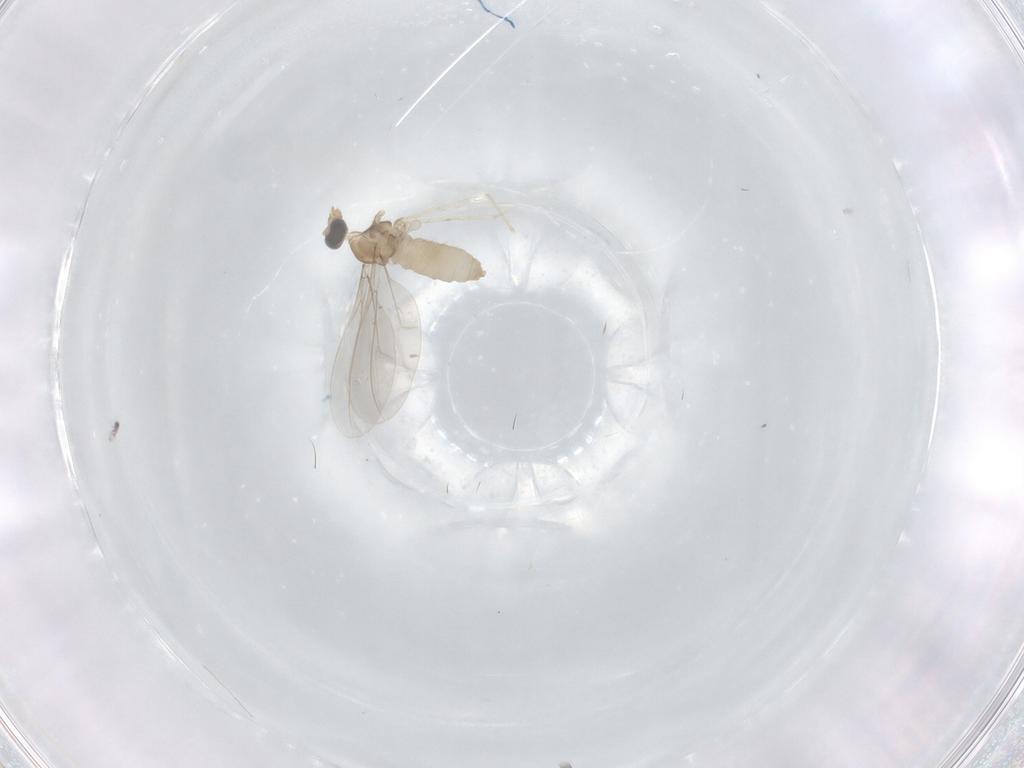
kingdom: Animalia
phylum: Arthropoda
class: Insecta
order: Diptera
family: Cecidomyiidae
